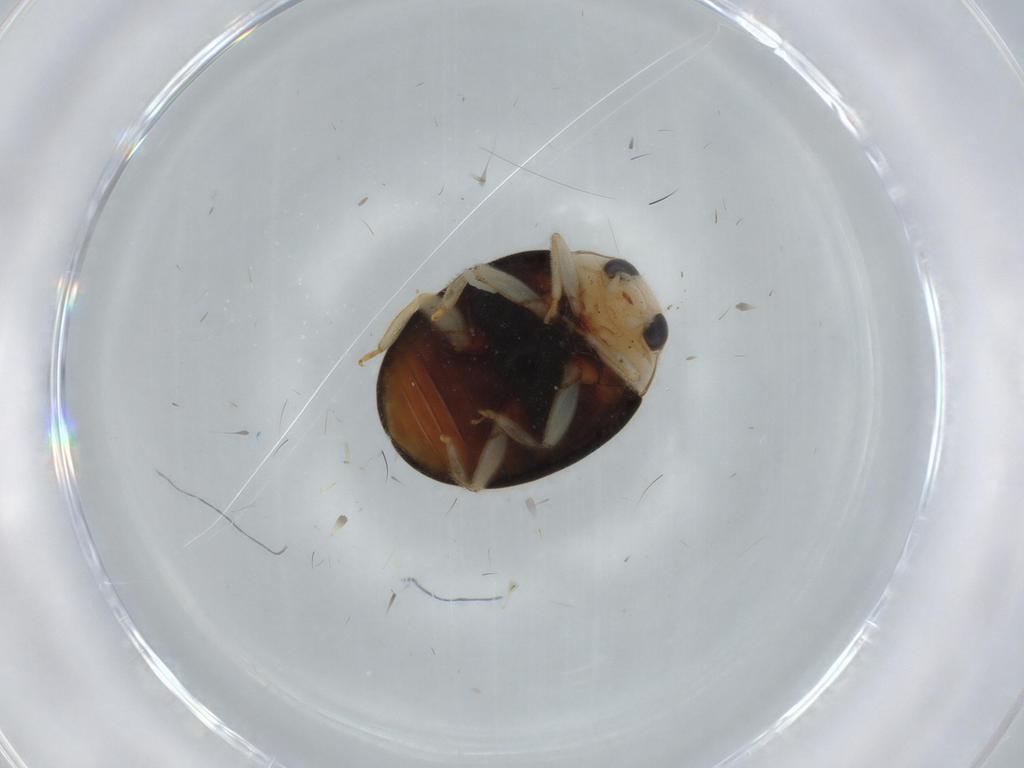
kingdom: Animalia
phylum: Arthropoda
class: Insecta
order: Coleoptera
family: Coccinellidae
